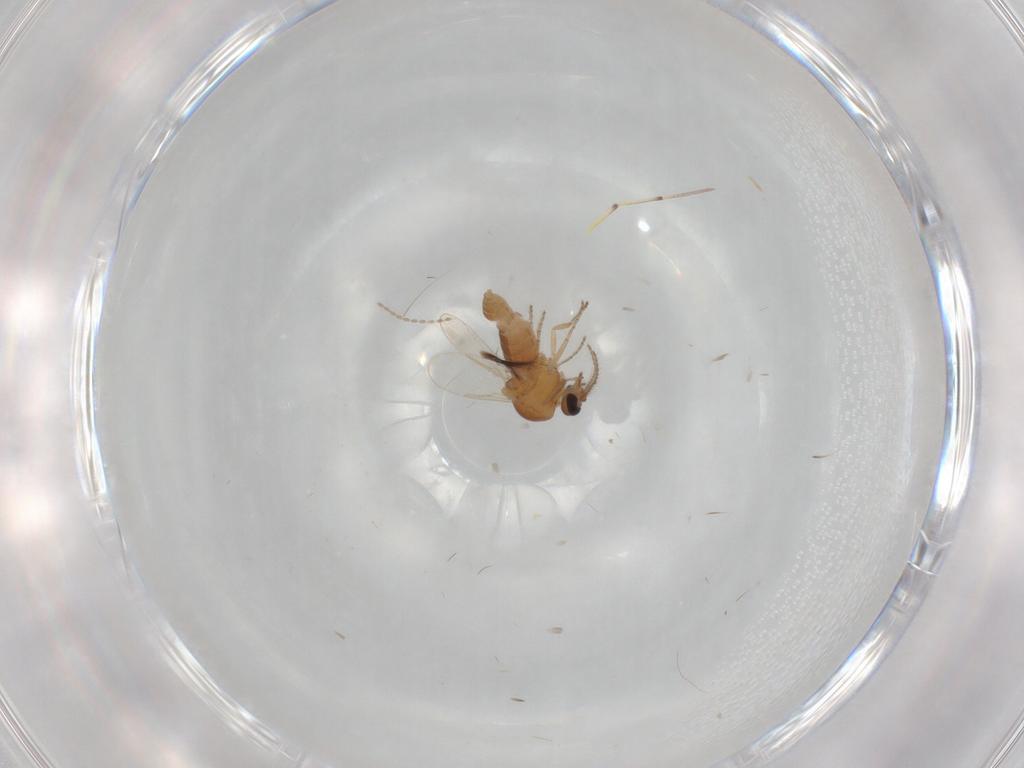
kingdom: Animalia
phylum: Arthropoda
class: Insecta
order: Diptera
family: Ceratopogonidae
